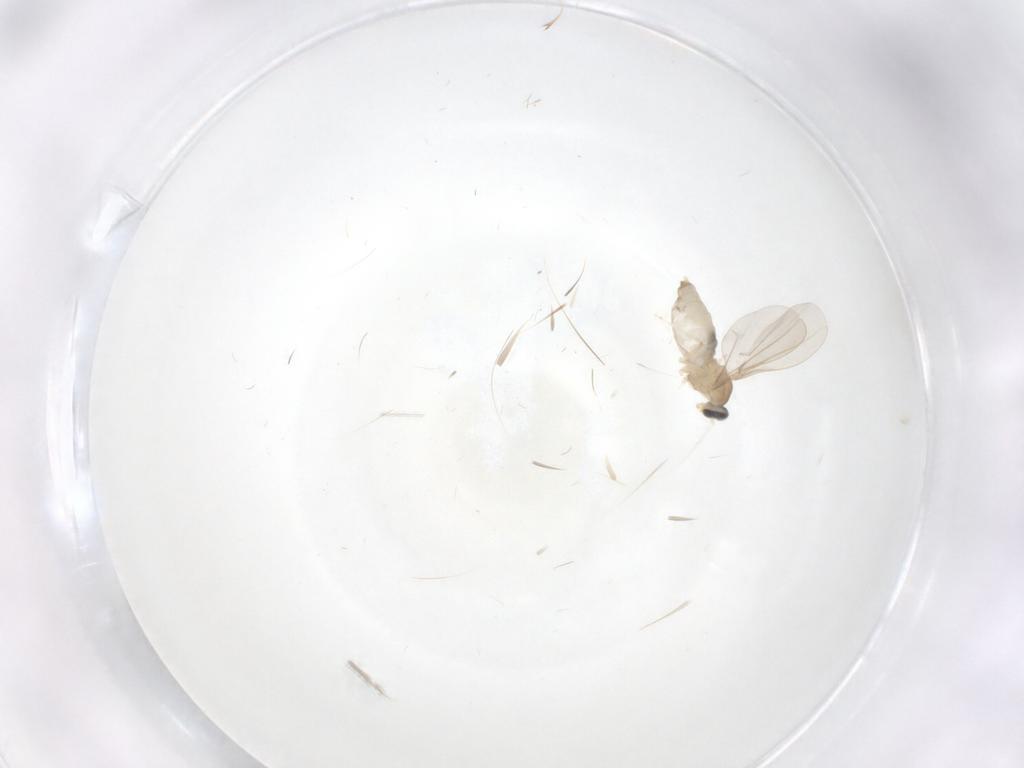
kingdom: Animalia
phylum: Arthropoda
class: Insecta
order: Diptera
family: Cecidomyiidae
